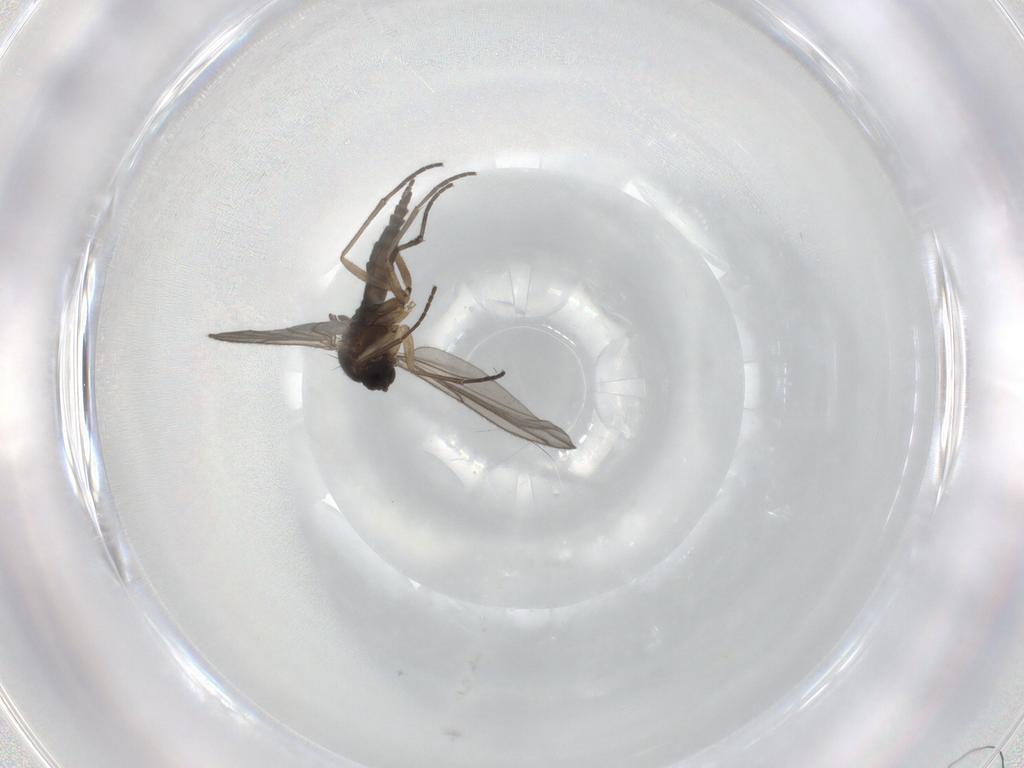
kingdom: Animalia
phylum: Arthropoda
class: Insecta
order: Diptera
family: Sciaridae
